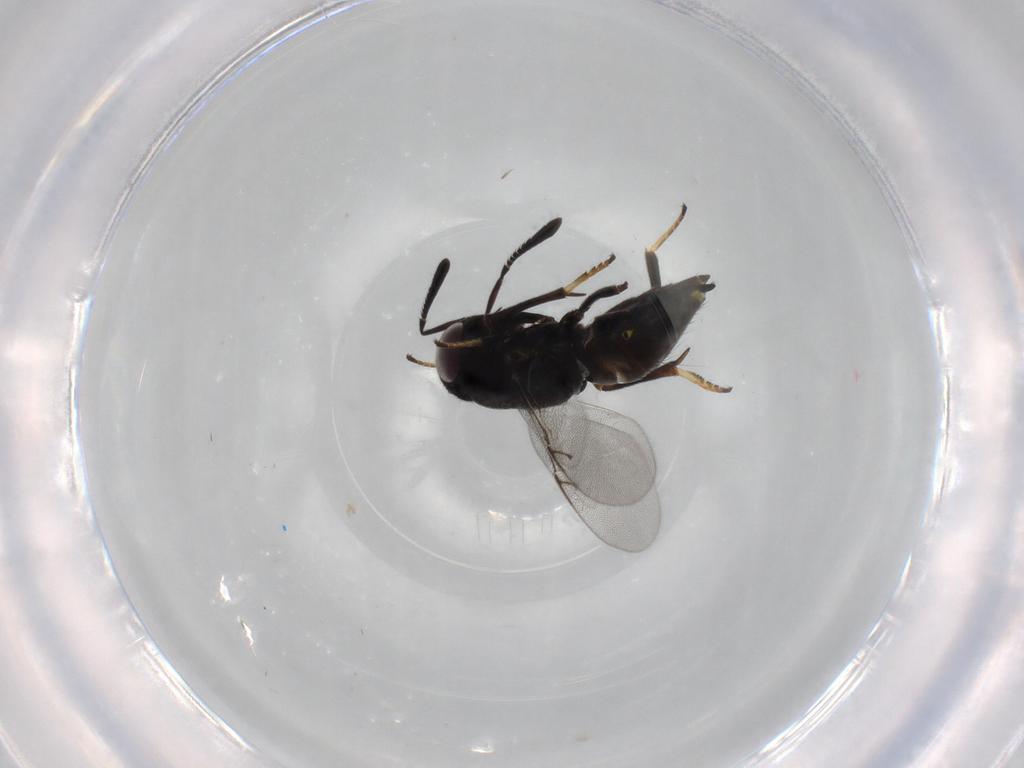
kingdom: Animalia
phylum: Arthropoda
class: Insecta
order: Hymenoptera
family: Encyrtidae
